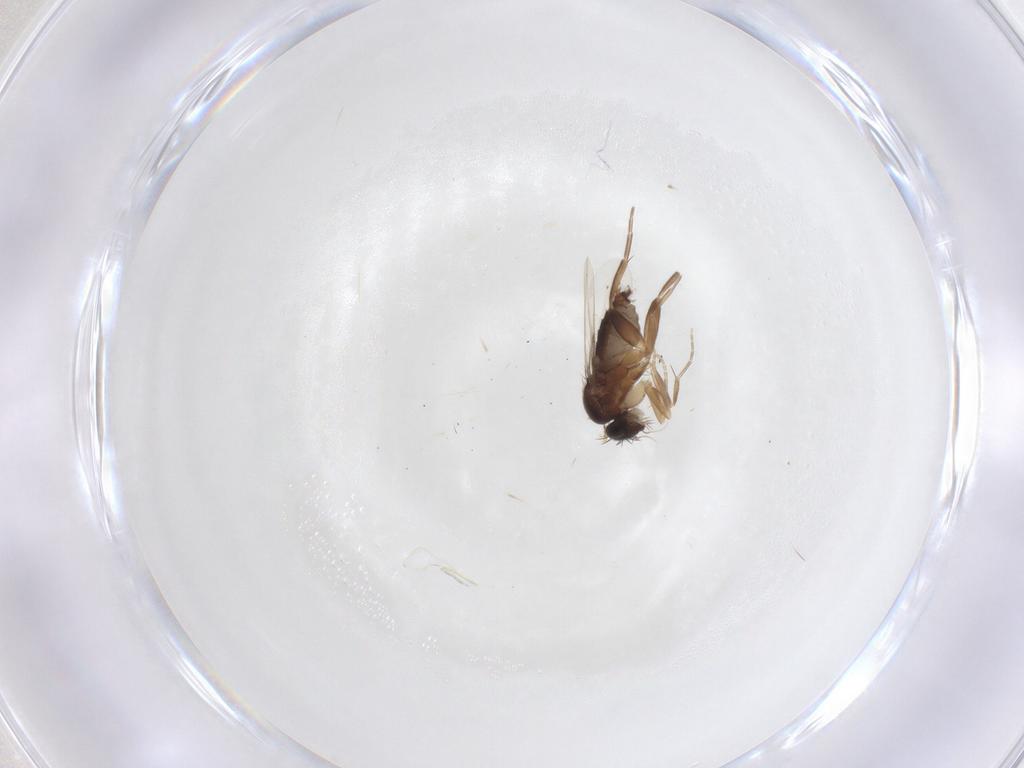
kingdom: Animalia
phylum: Arthropoda
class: Insecta
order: Diptera
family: Phoridae
